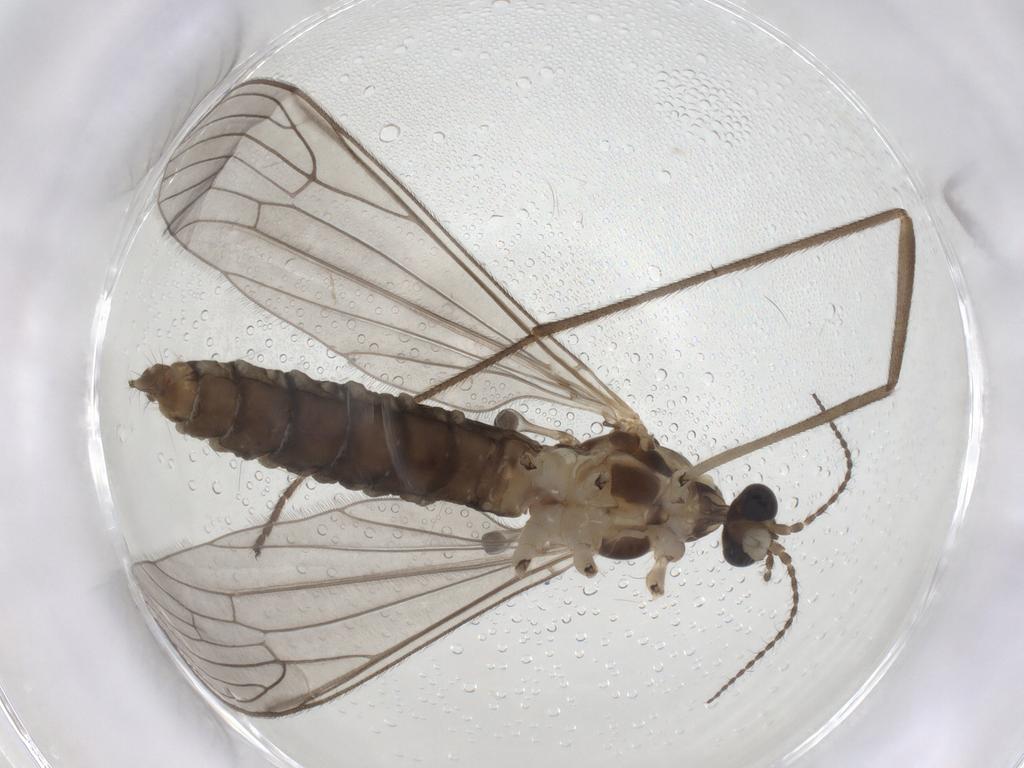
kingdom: Animalia
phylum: Arthropoda
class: Insecta
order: Diptera
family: Limoniidae
